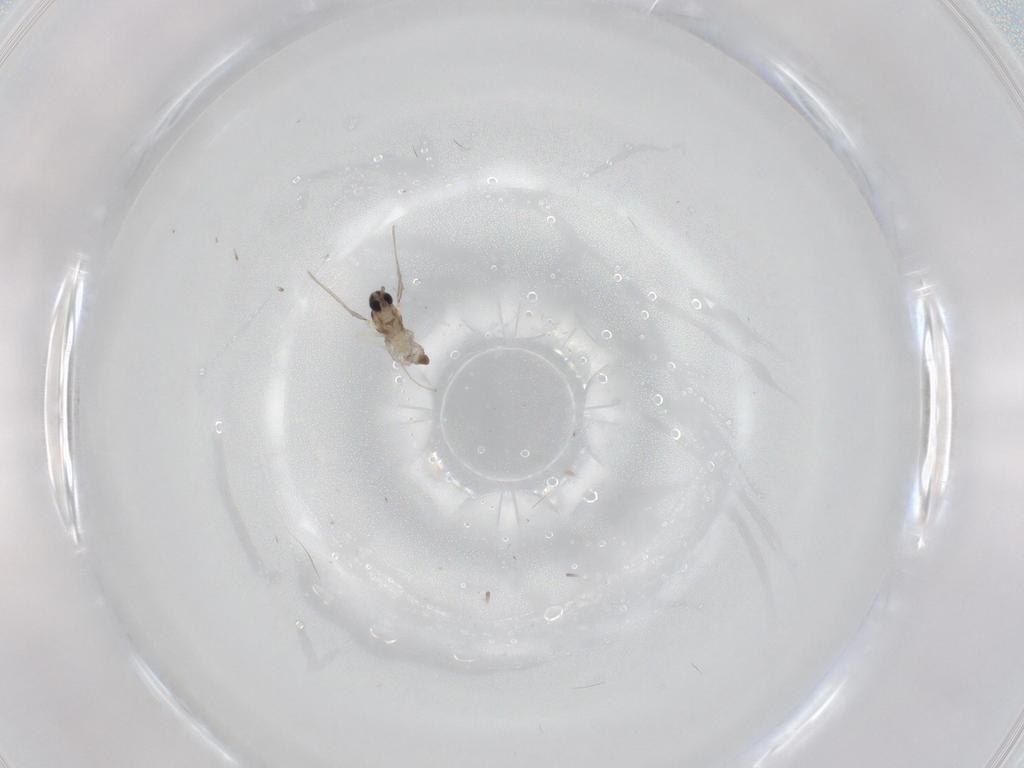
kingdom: Animalia
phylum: Arthropoda
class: Insecta
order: Diptera
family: Cecidomyiidae
